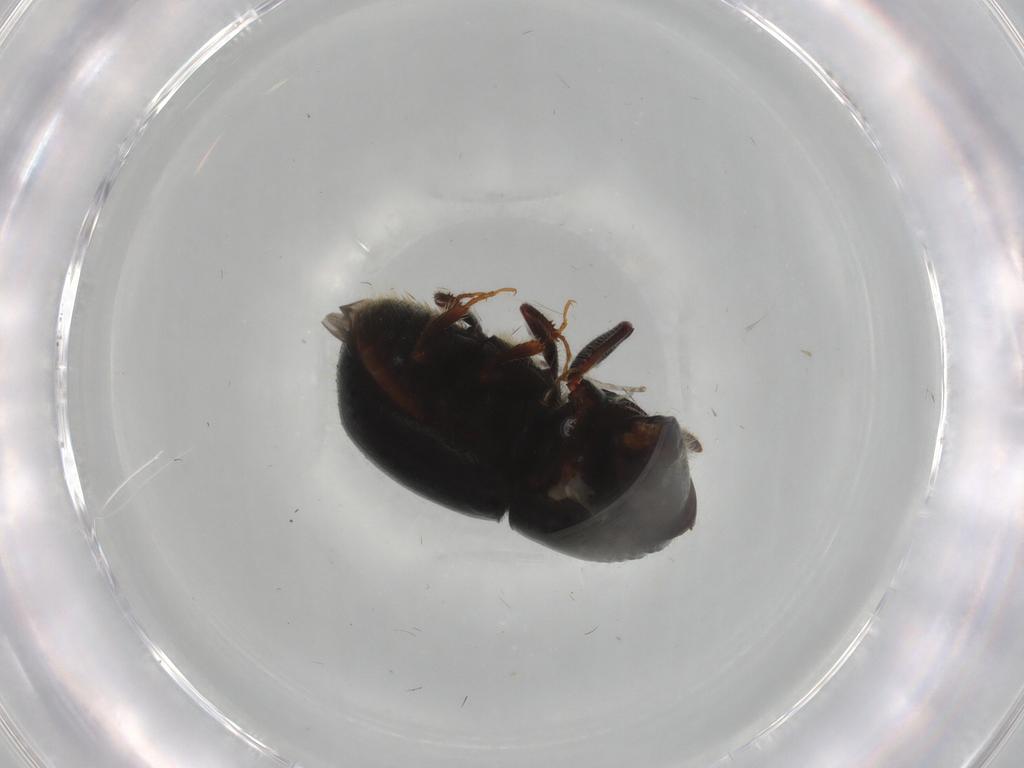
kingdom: Animalia
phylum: Arthropoda
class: Insecta
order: Coleoptera
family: Curculionidae
